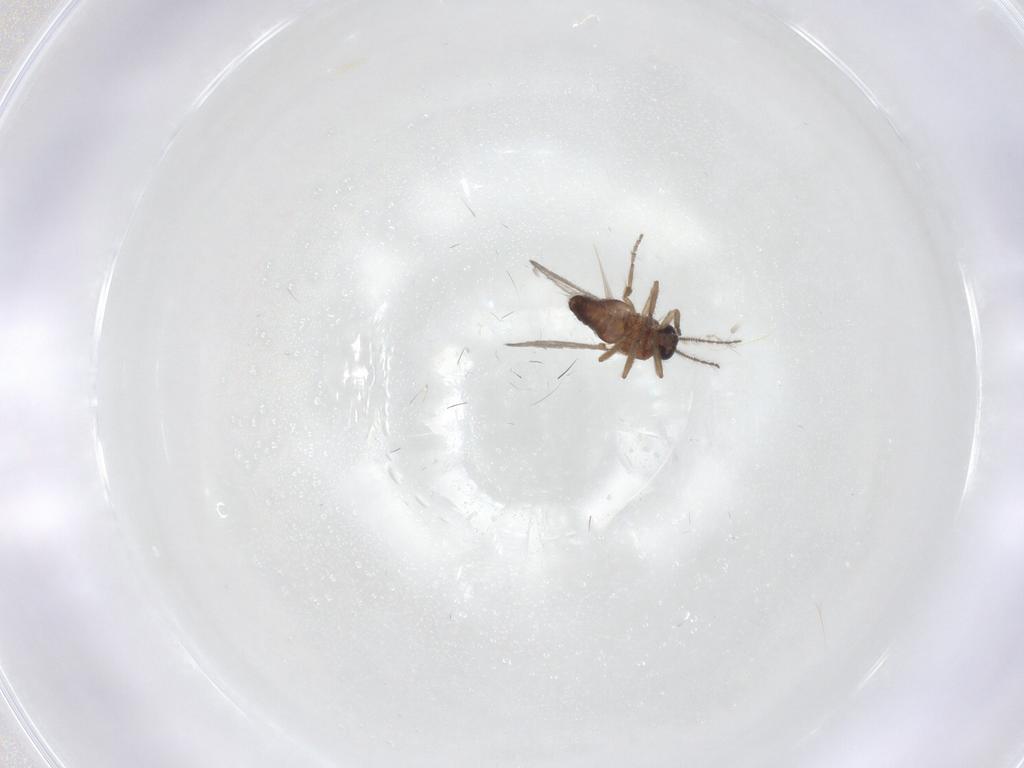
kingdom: Animalia
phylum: Arthropoda
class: Insecta
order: Diptera
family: Ceratopogonidae
